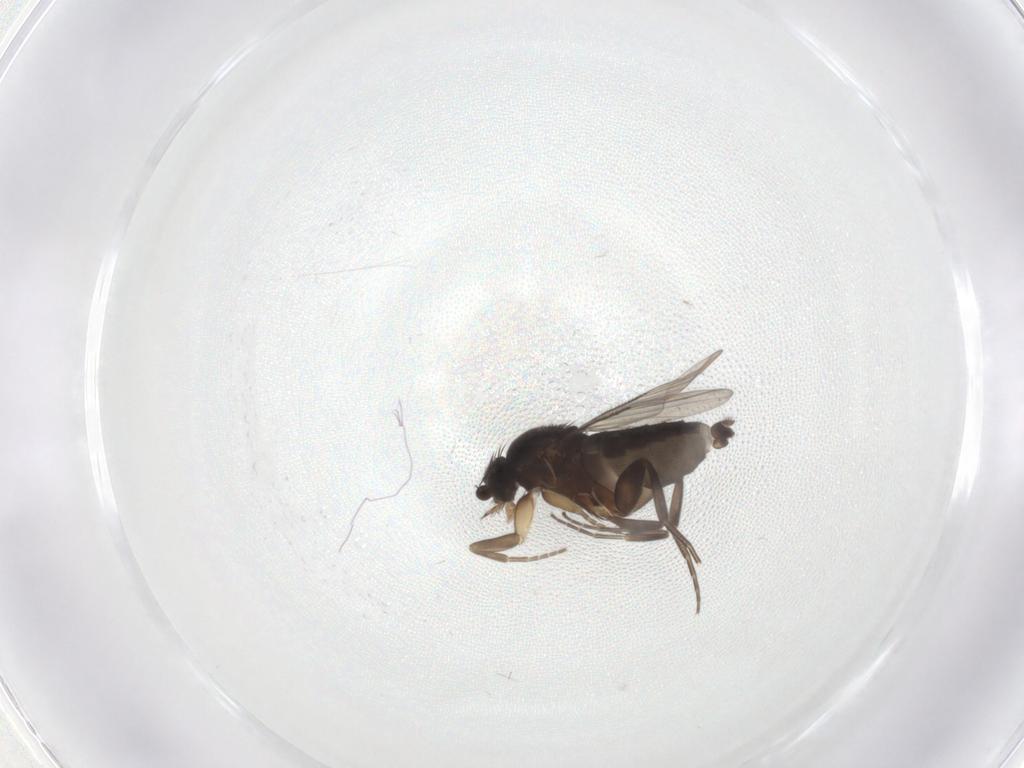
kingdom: Animalia
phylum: Arthropoda
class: Insecta
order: Diptera
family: Phoridae
